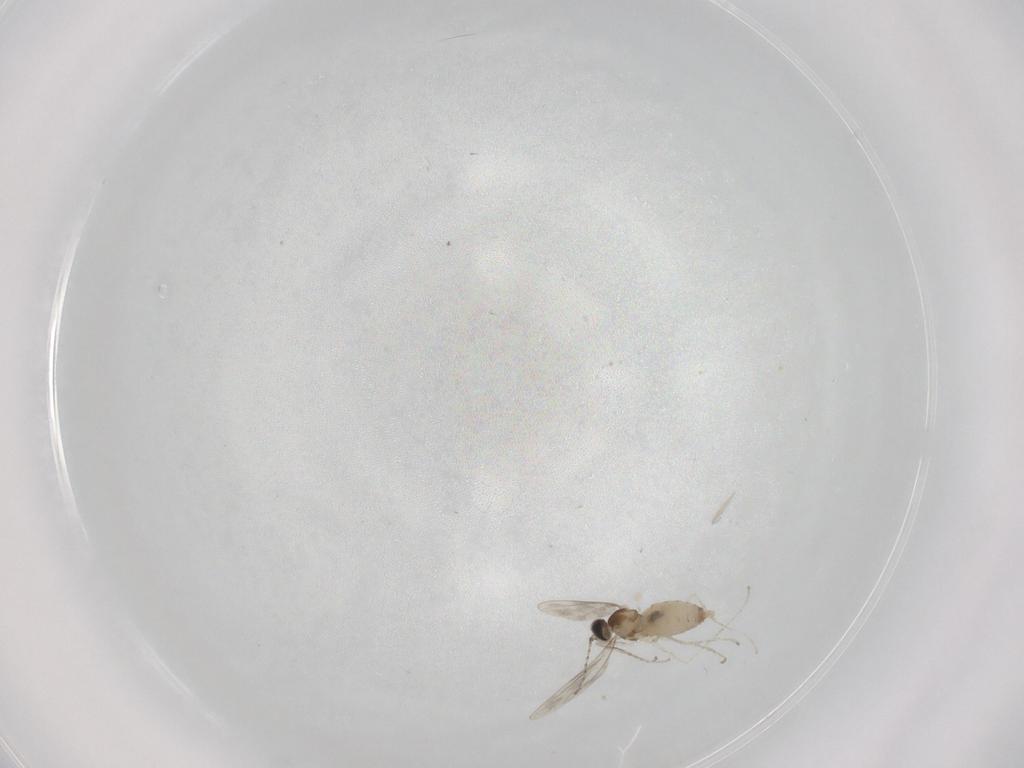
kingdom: Animalia
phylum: Arthropoda
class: Insecta
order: Diptera
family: Cecidomyiidae
